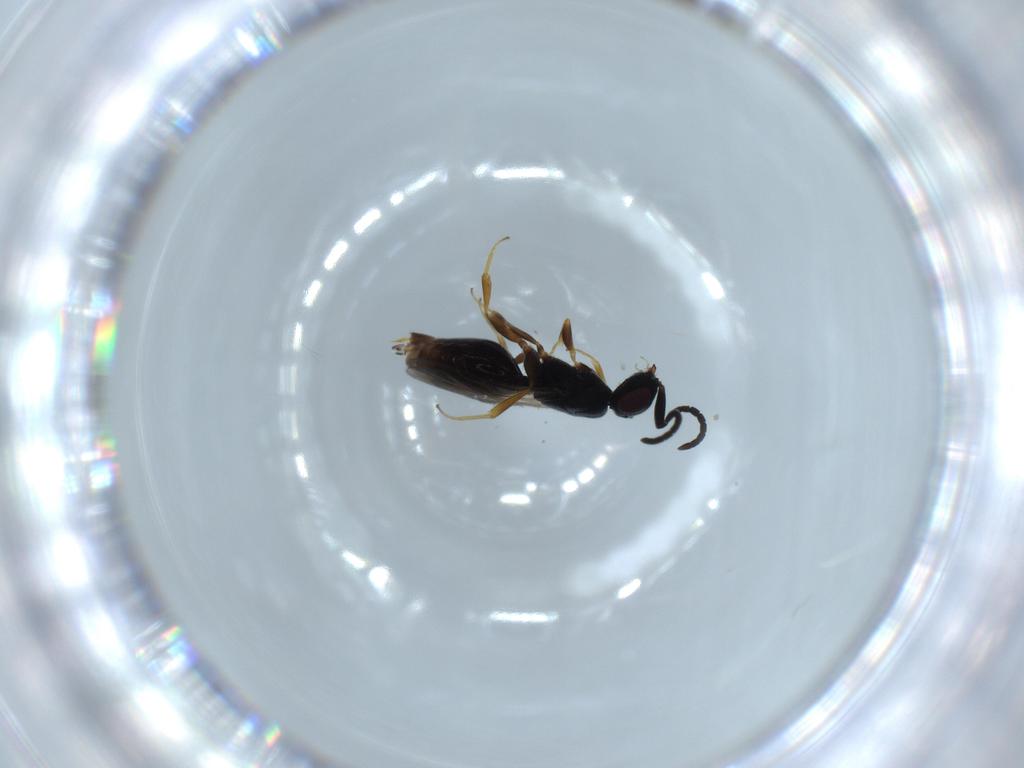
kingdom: Animalia
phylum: Arthropoda
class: Insecta
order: Hymenoptera
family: Megaspilidae
